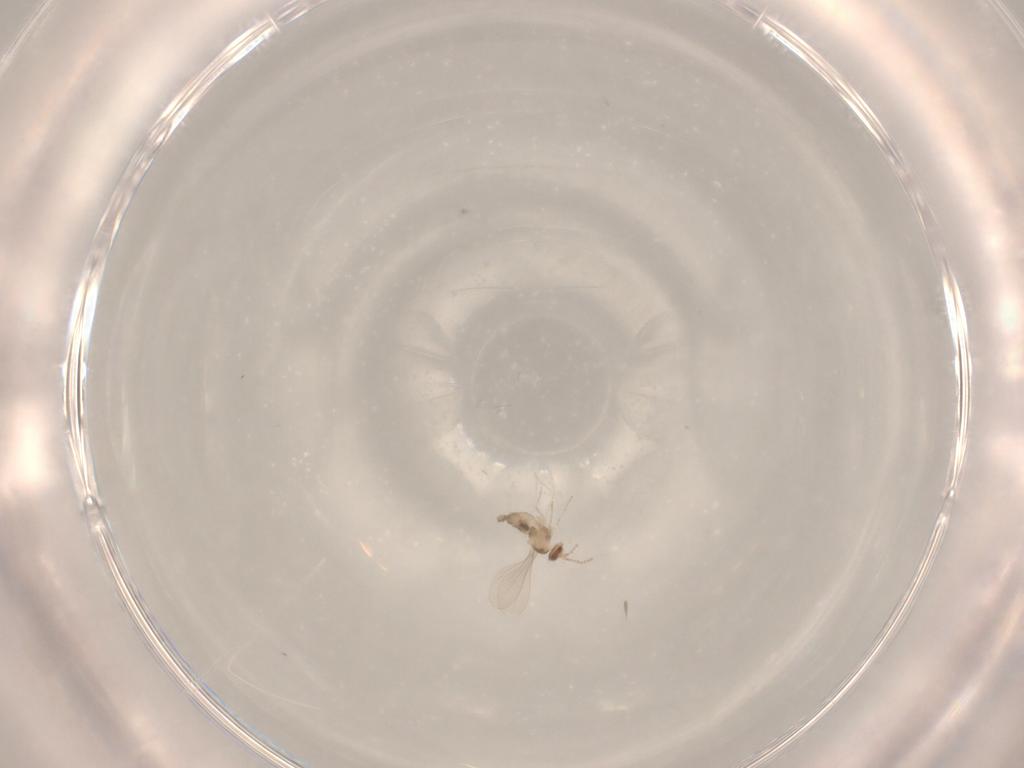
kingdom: Animalia
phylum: Arthropoda
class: Insecta
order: Diptera
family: Cecidomyiidae
